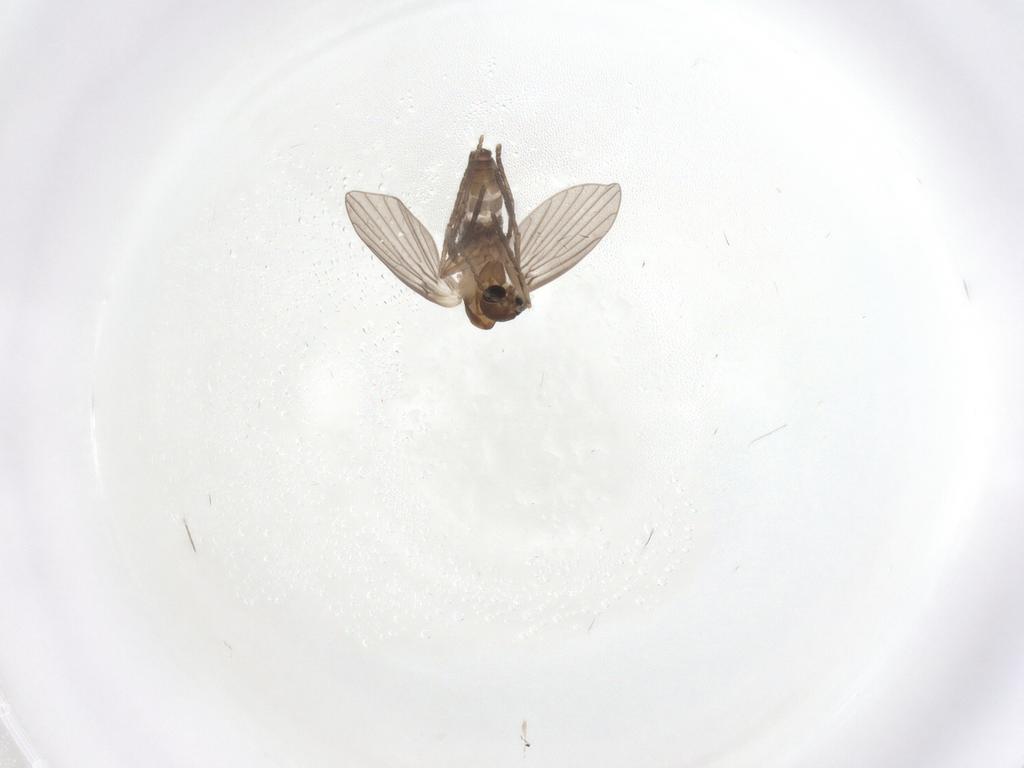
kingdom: Animalia
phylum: Arthropoda
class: Insecta
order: Diptera
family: Psychodidae
